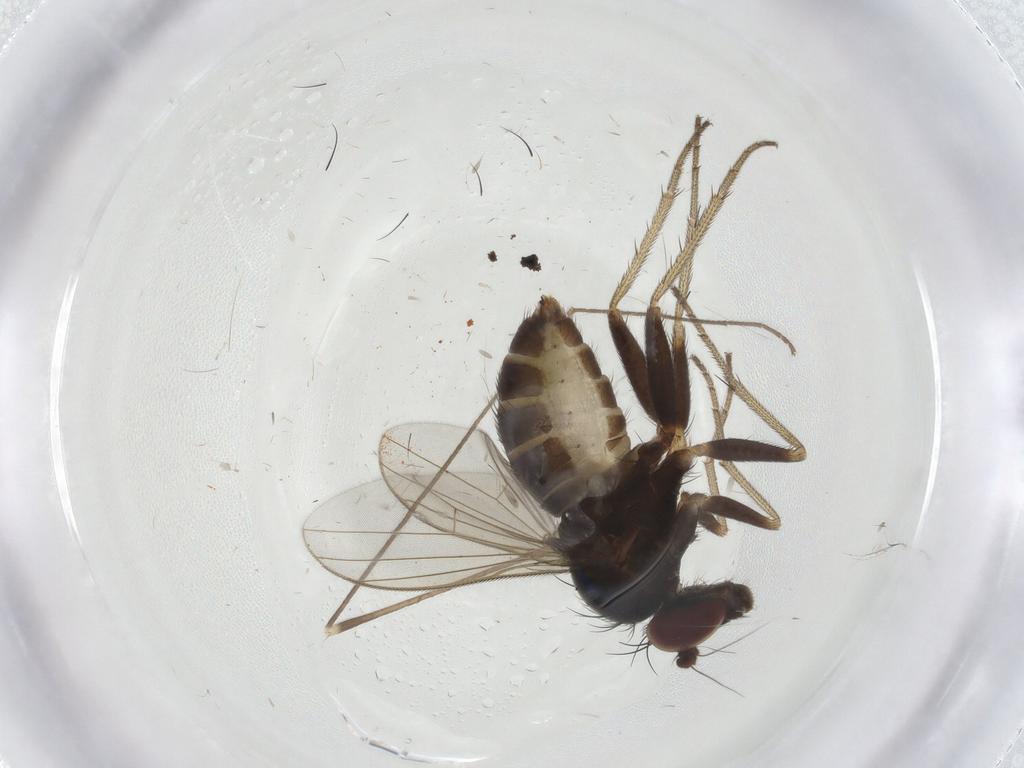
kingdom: Animalia
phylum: Arthropoda
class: Insecta
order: Diptera
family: Dolichopodidae
